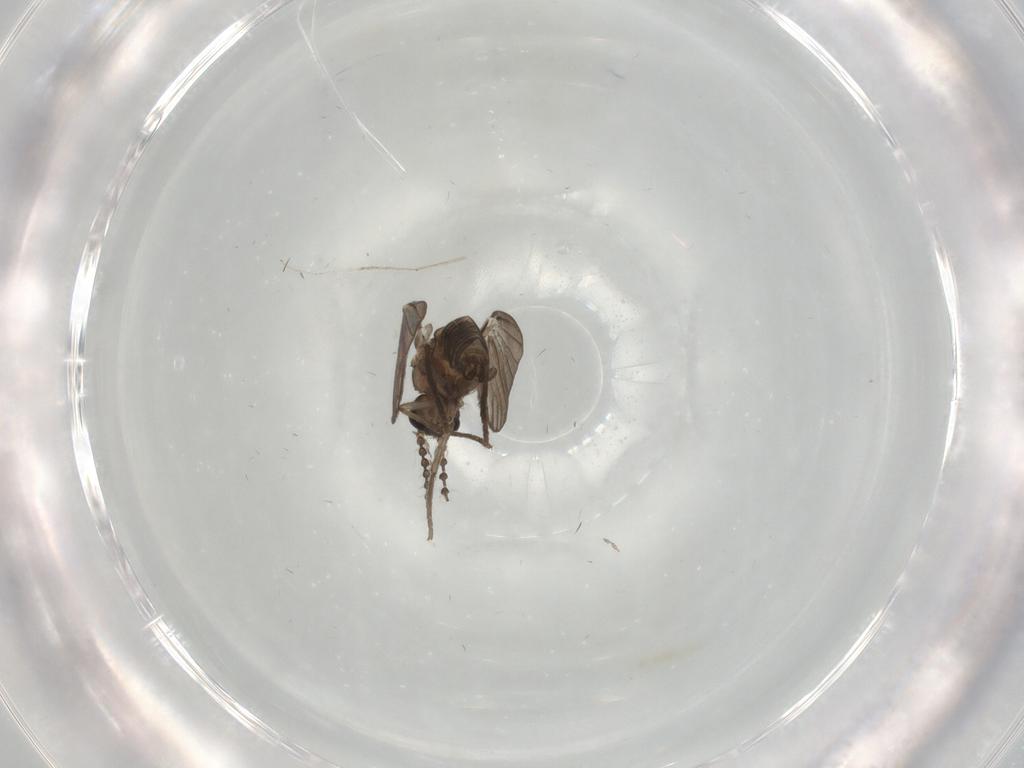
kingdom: Animalia
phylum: Arthropoda
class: Insecta
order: Diptera
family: Psychodidae
